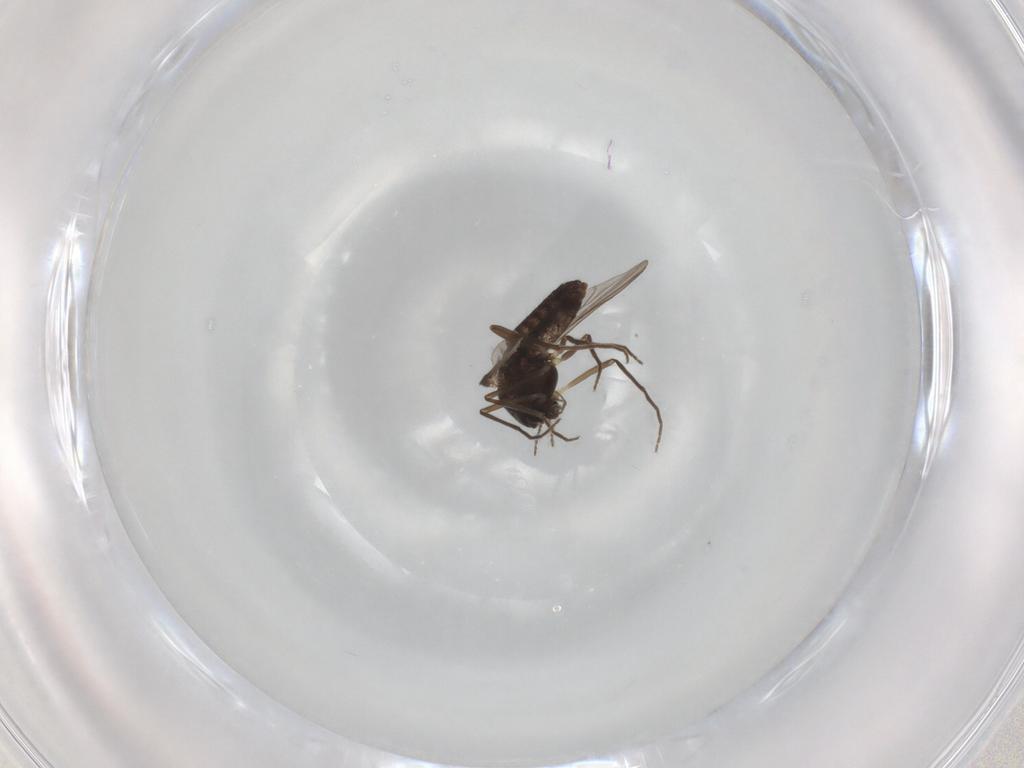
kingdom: Animalia
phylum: Arthropoda
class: Insecta
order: Diptera
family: Chironomidae
